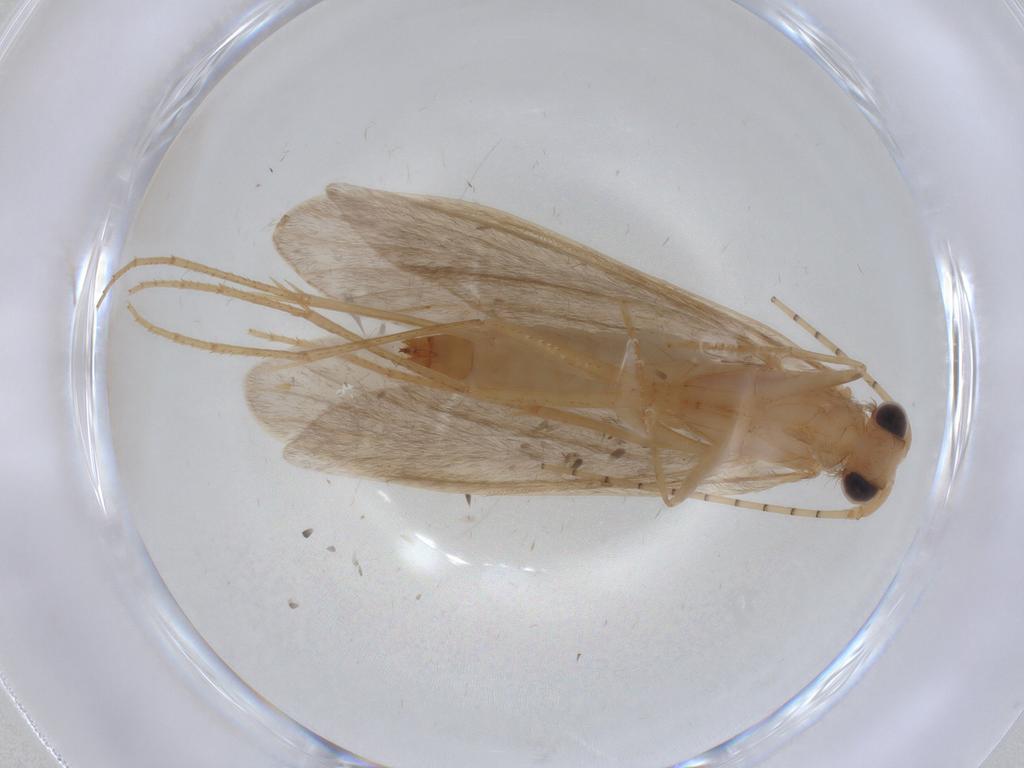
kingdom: Animalia
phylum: Arthropoda
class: Insecta
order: Trichoptera
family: Leptoceridae
